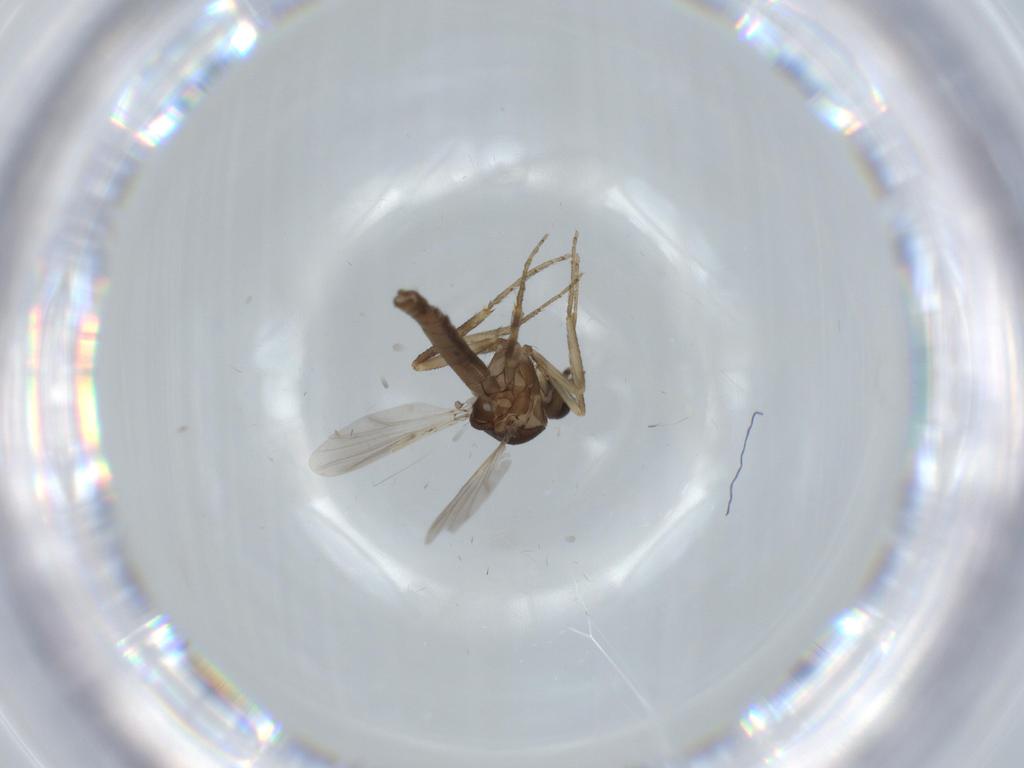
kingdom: Animalia
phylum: Arthropoda
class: Insecta
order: Diptera
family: Ceratopogonidae
